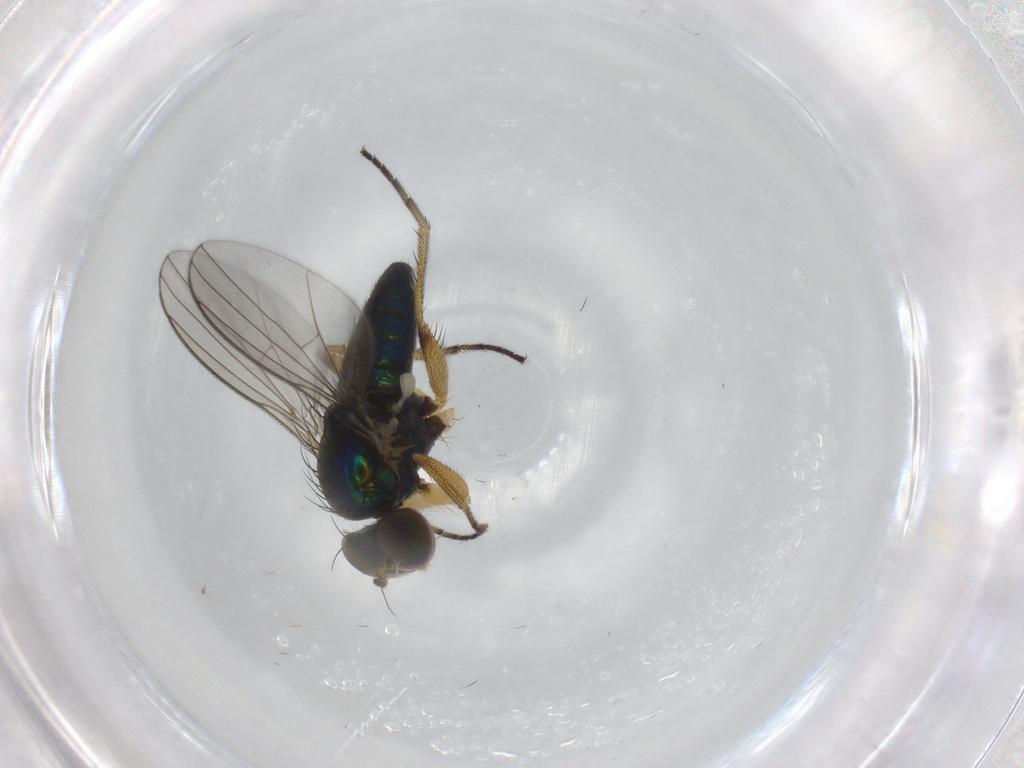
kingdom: Animalia
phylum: Arthropoda
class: Insecta
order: Diptera
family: Dolichopodidae
